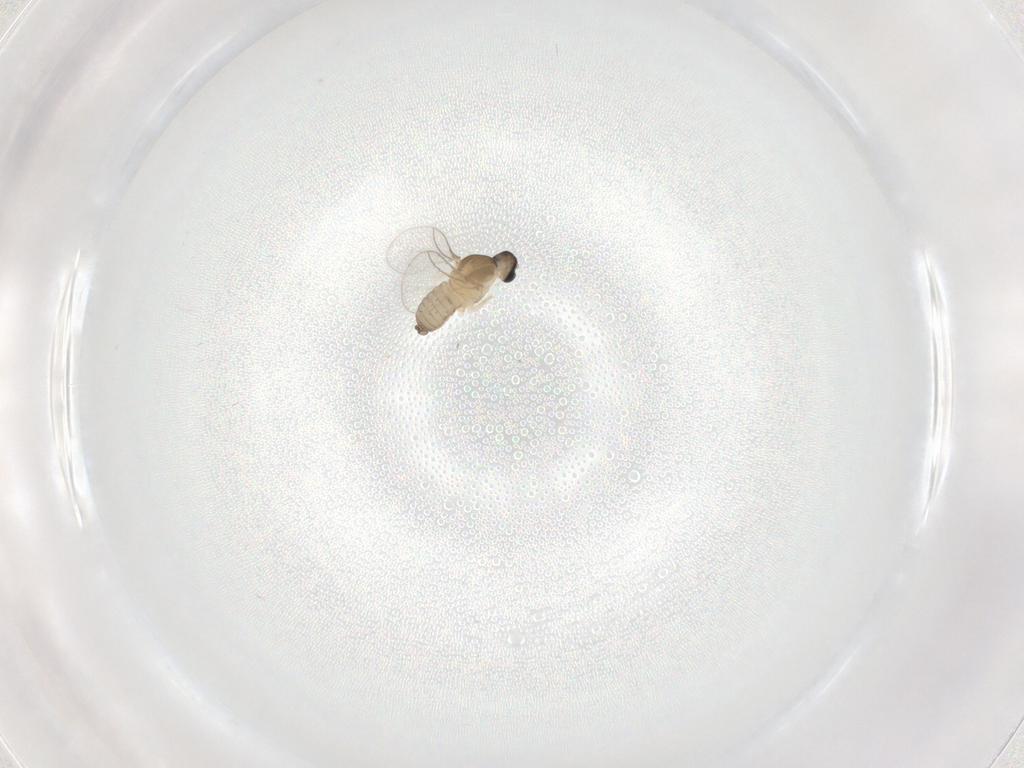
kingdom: Animalia
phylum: Arthropoda
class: Insecta
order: Diptera
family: Cecidomyiidae
